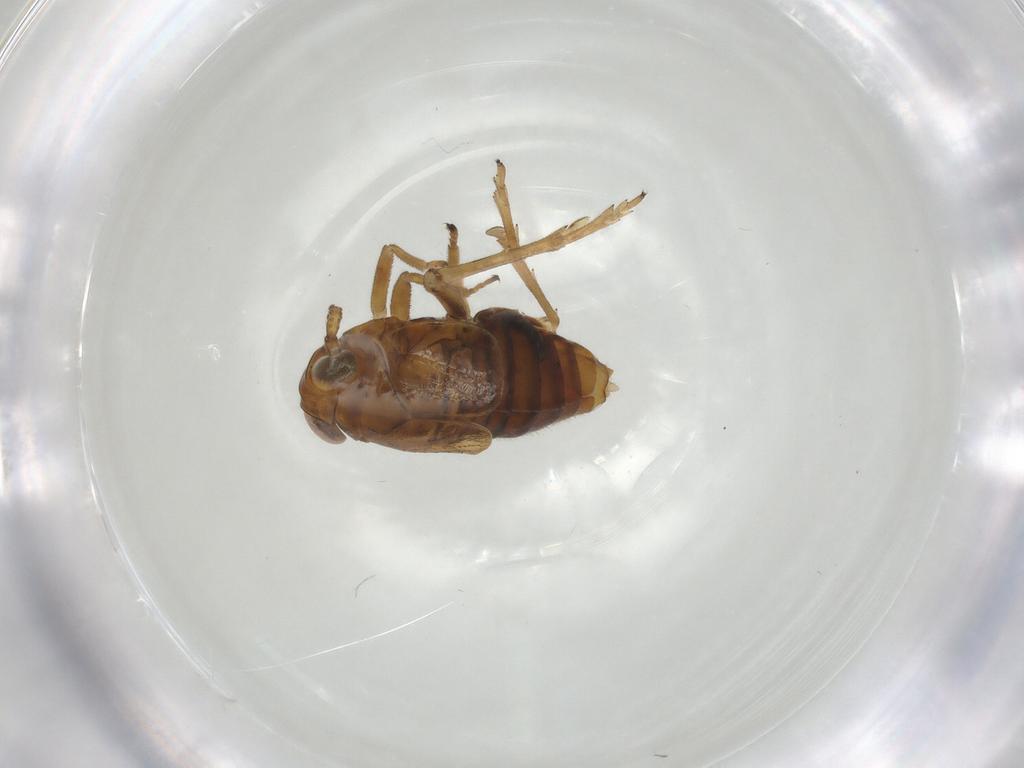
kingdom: Animalia
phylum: Arthropoda
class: Insecta
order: Hemiptera
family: Delphacidae
